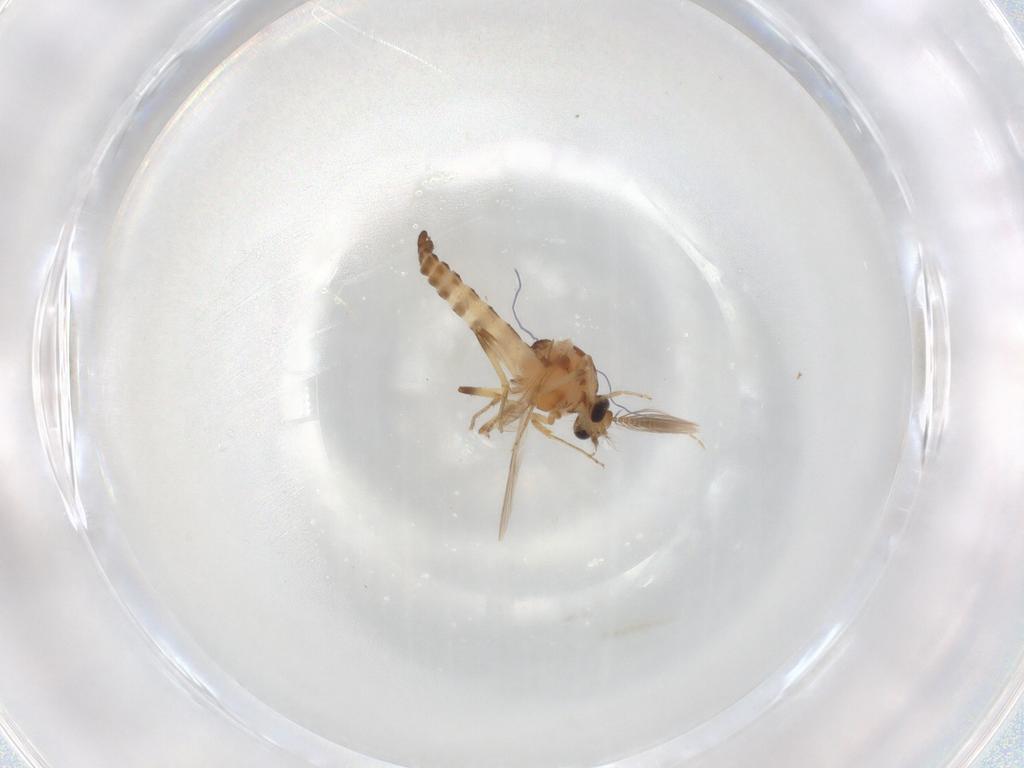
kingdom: Animalia
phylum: Arthropoda
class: Insecta
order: Diptera
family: Ceratopogonidae
